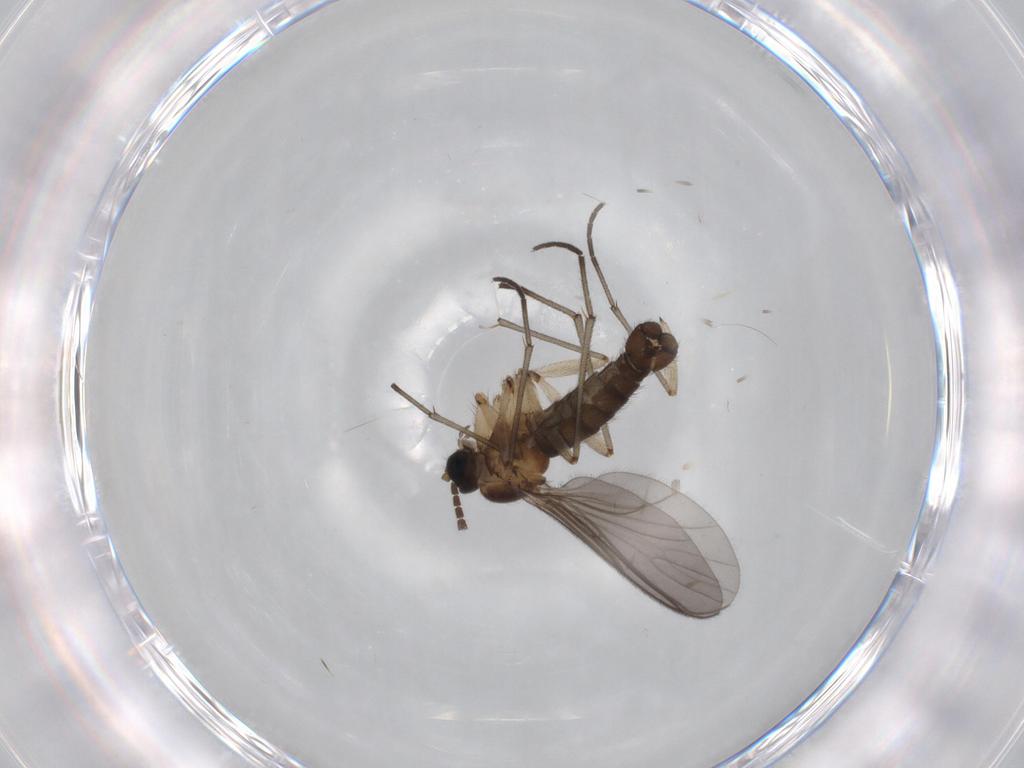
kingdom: Animalia
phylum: Arthropoda
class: Insecta
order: Diptera
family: Sciaridae
